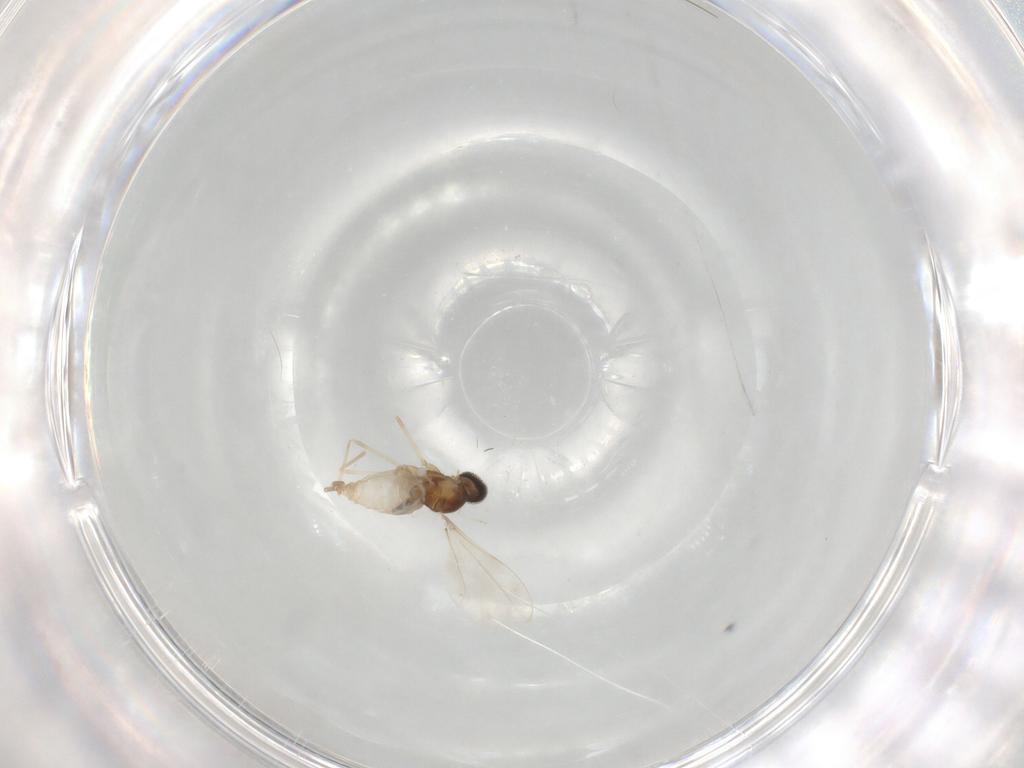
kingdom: Animalia
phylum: Arthropoda
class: Insecta
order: Diptera
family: Cecidomyiidae
